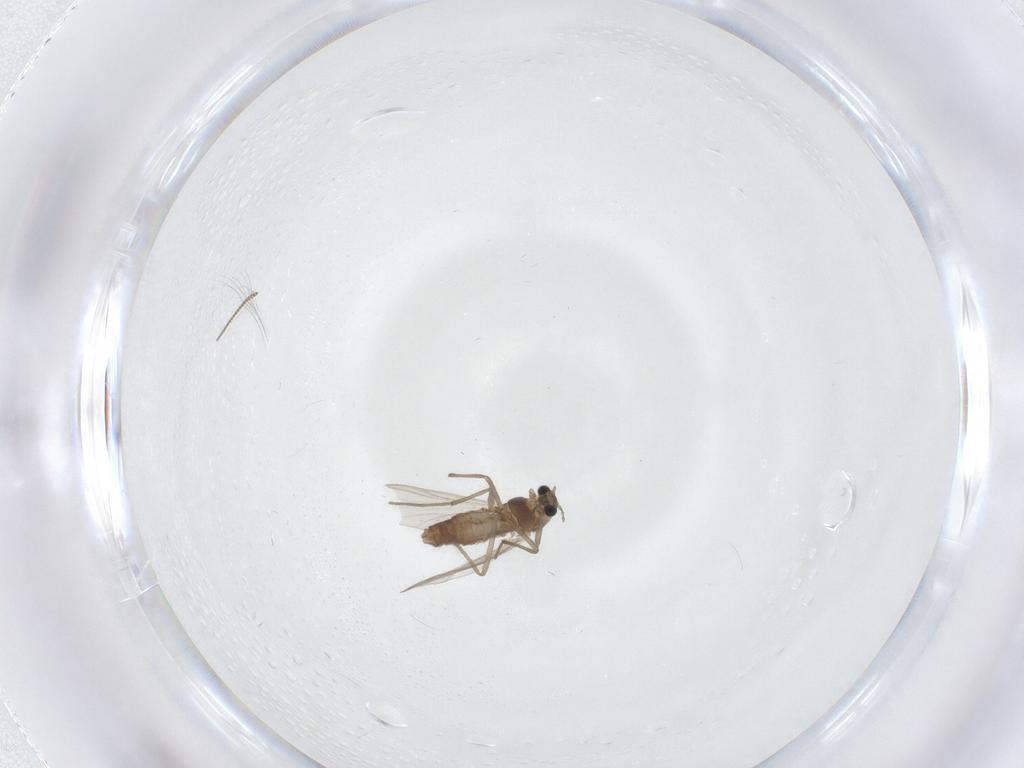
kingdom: Animalia
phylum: Arthropoda
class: Insecta
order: Diptera
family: Chironomidae
